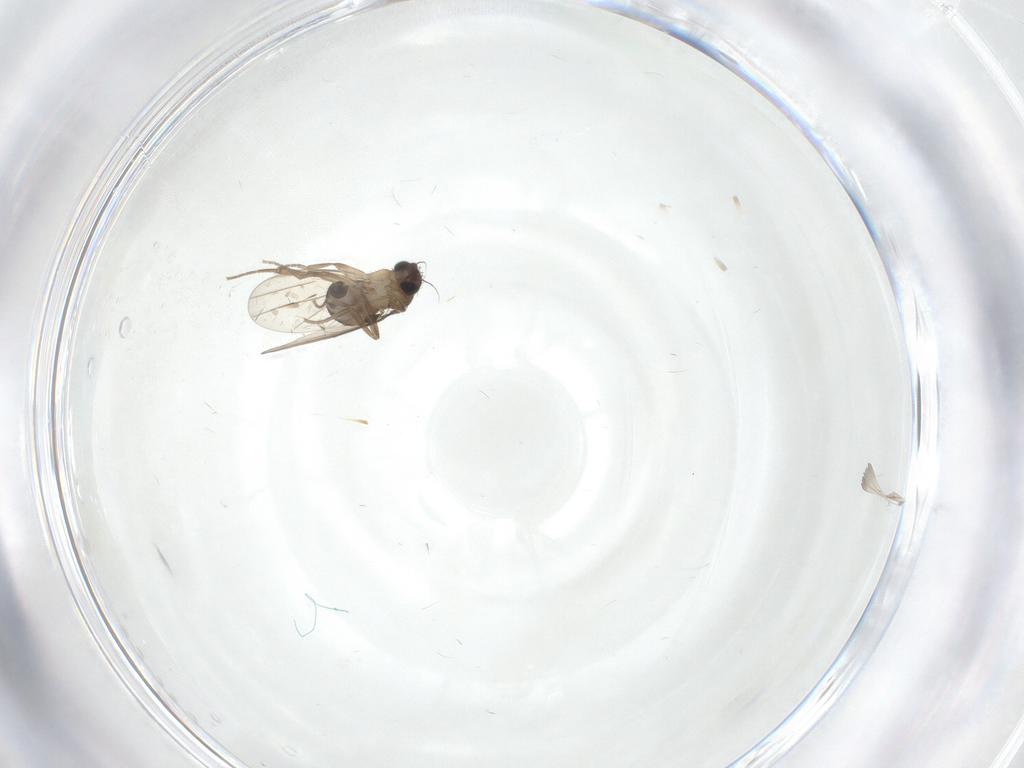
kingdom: Animalia
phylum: Arthropoda
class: Insecta
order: Diptera
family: Phoridae
